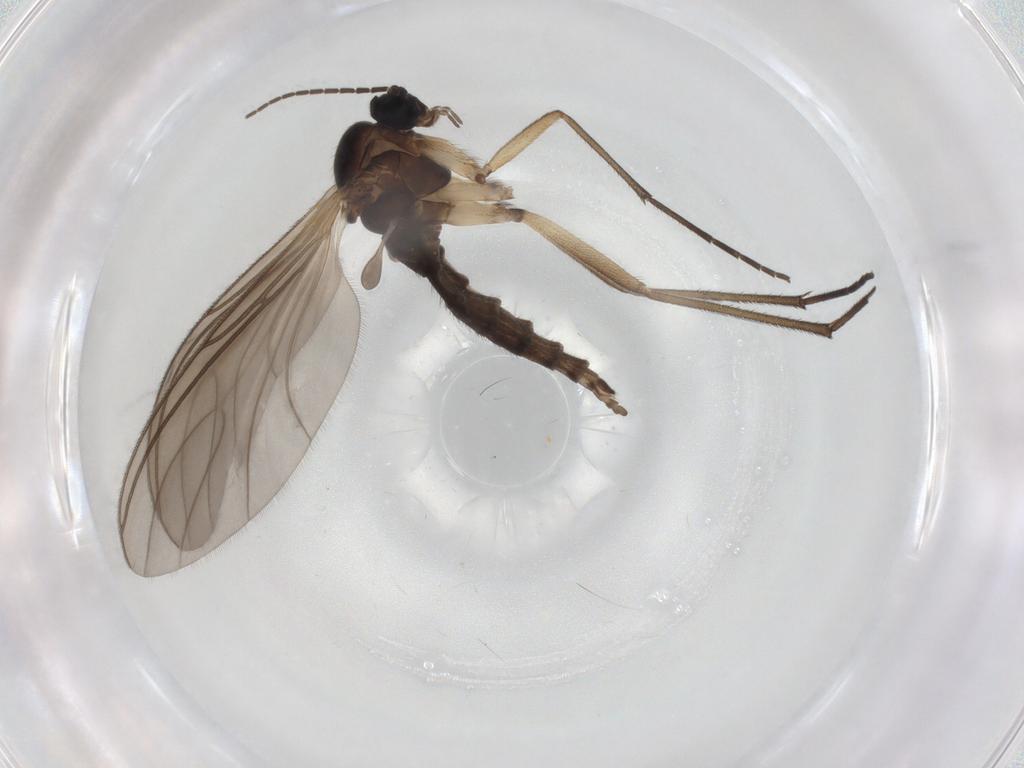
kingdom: Animalia
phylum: Arthropoda
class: Insecta
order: Diptera
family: Sciaridae
